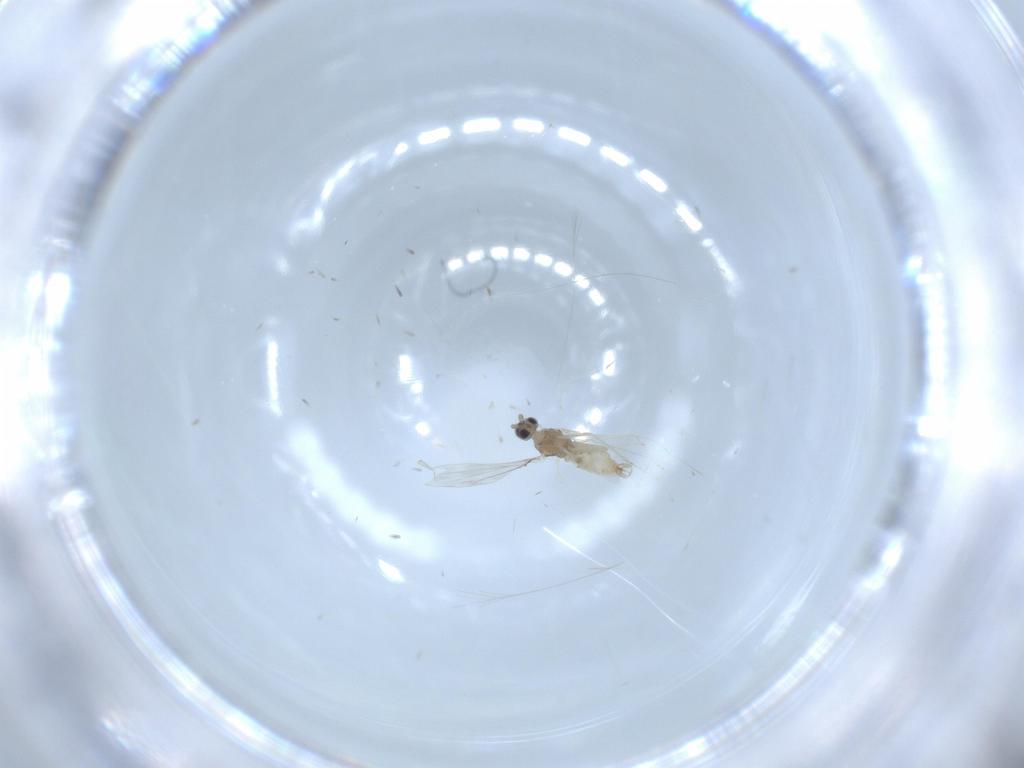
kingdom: Animalia
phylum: Arthropoda
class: Insecta
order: Diptera
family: Cecidomyiidae
